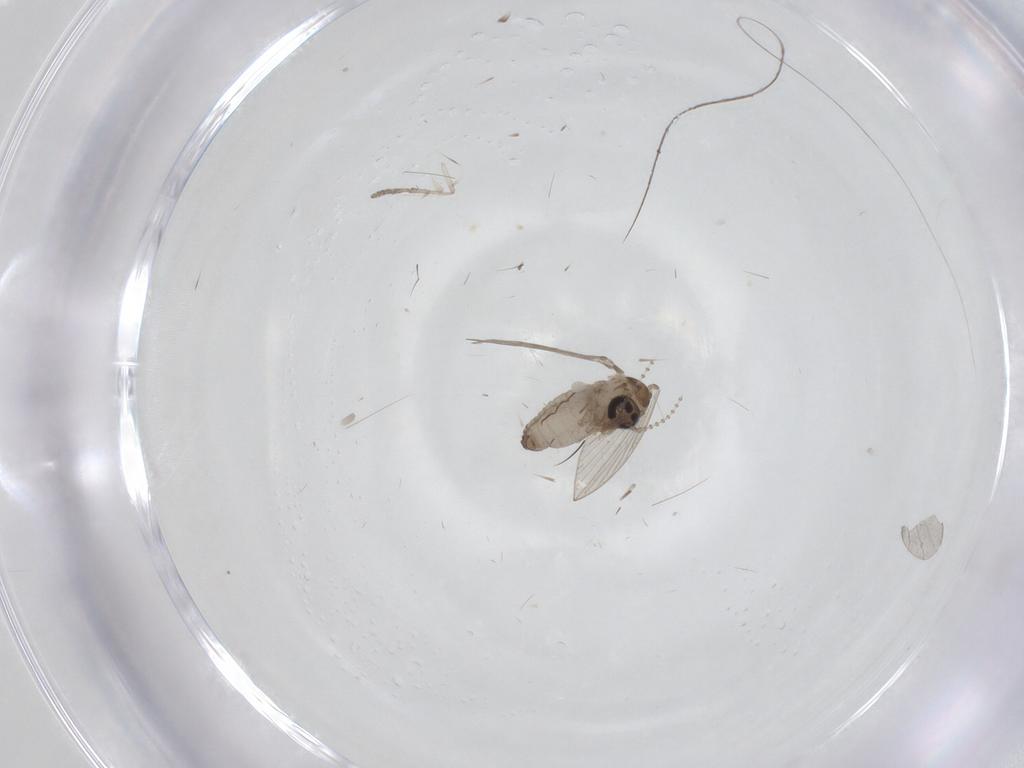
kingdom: Animalia
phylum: Arthropoda
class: Insecta
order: Diptera
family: Psychodidae
